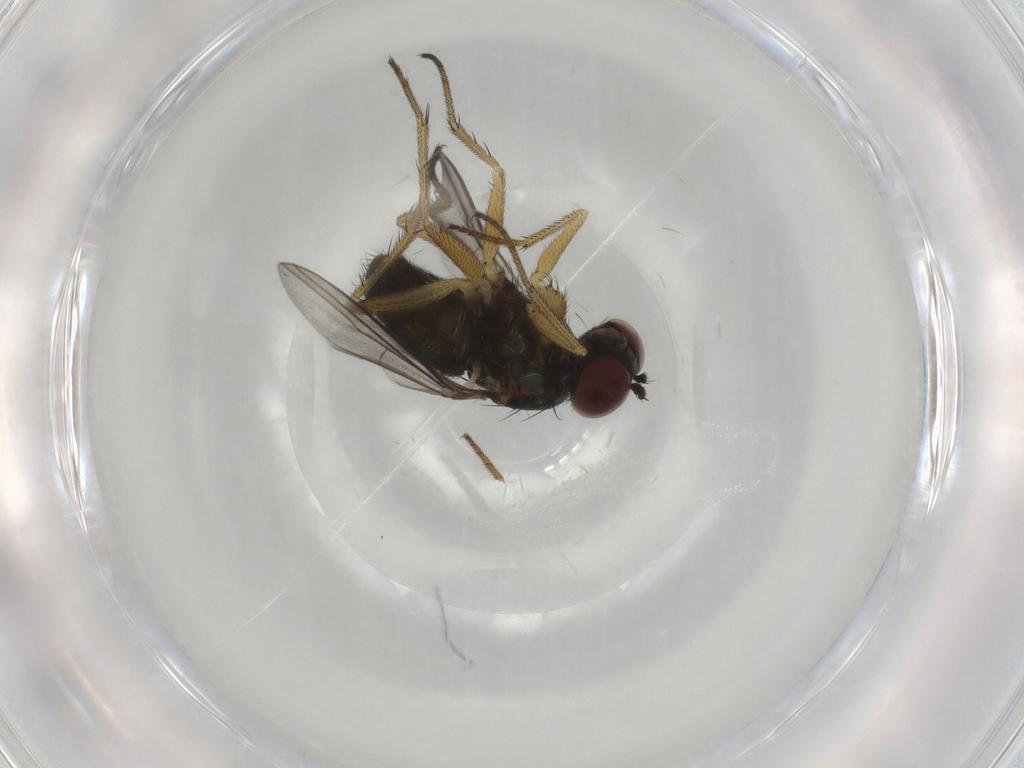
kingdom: Animalia
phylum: Arthropoda
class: Insecta
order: Diptera
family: Dolichopodidae
